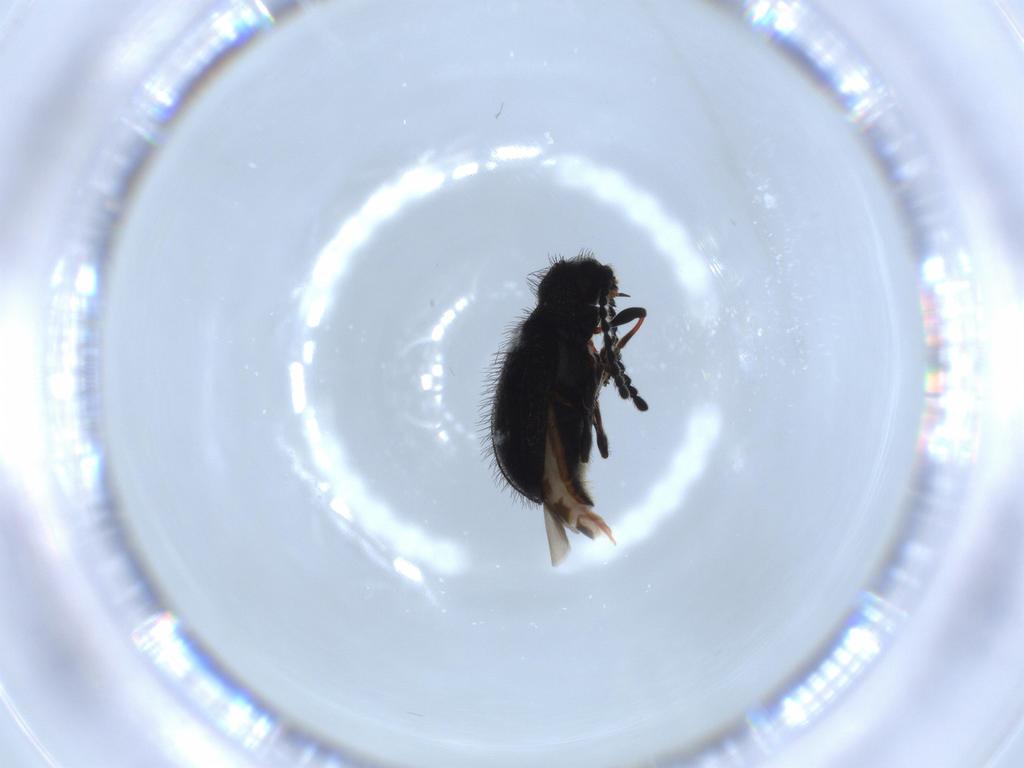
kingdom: Animalia
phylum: Arthropoda
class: Insecta
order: Coleoptera
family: Ptinidae
